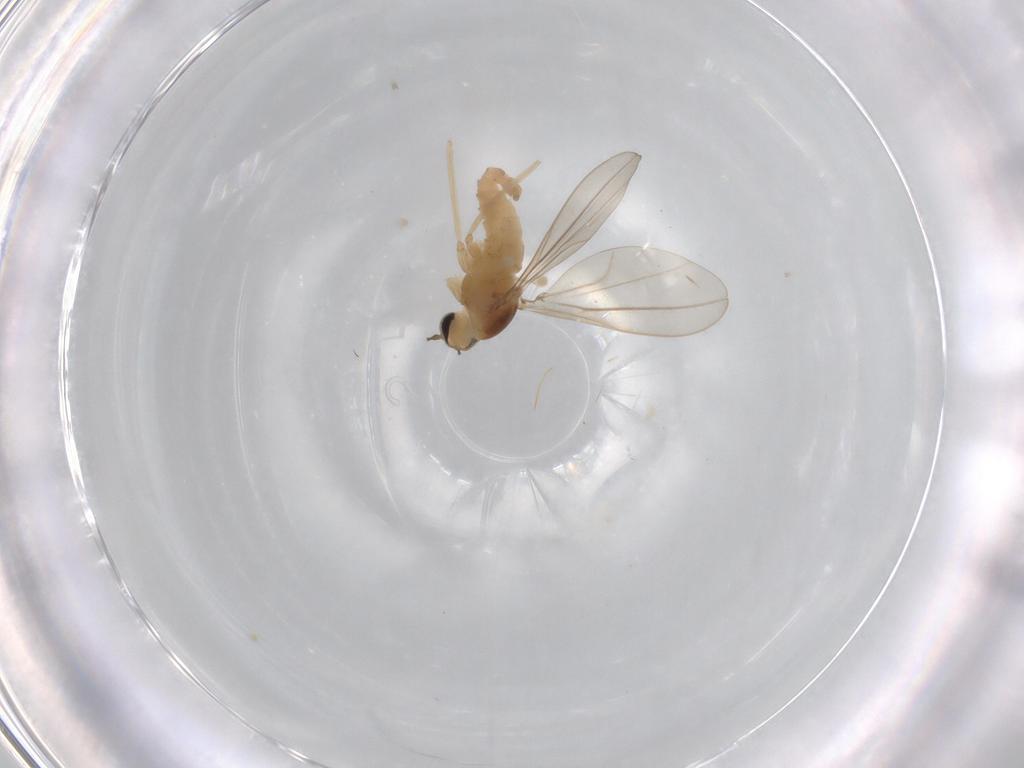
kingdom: Animalia
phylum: Arthropoda
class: Insecta
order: Diptera
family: Cecidomyiidae
